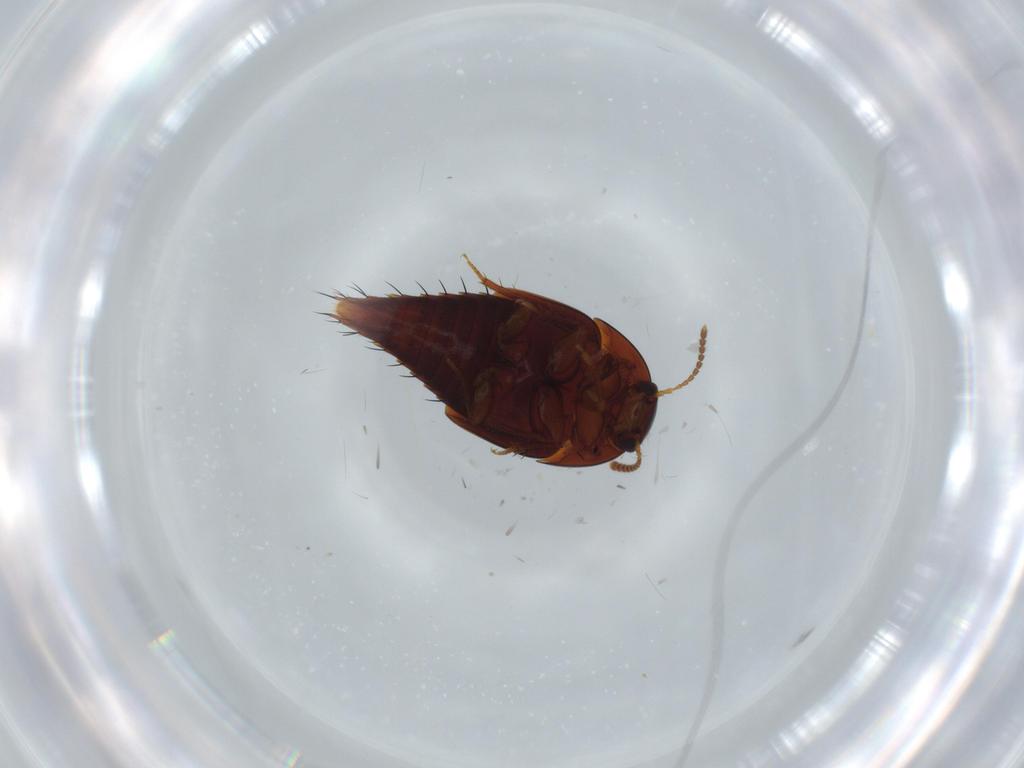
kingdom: Animalia
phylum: Arthropoda
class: Insecta
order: Coleoptera
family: Chrysomelidae
